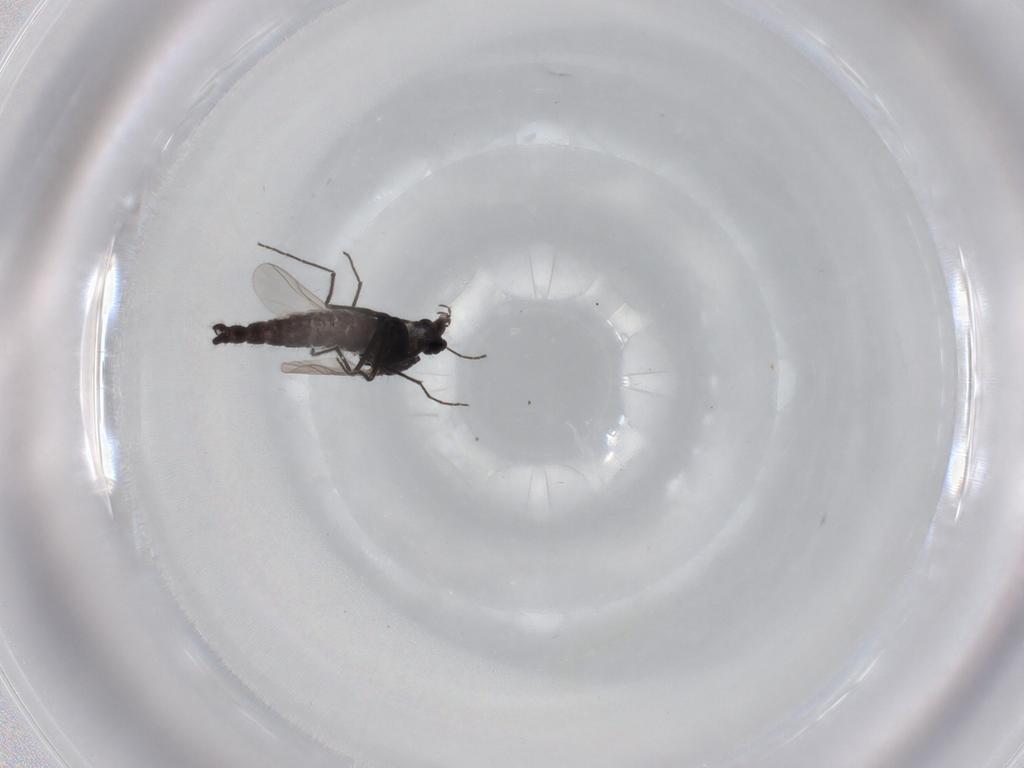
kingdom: Animalia
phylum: Arthropoda
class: Insecta
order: Diptera
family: Chironomidae
